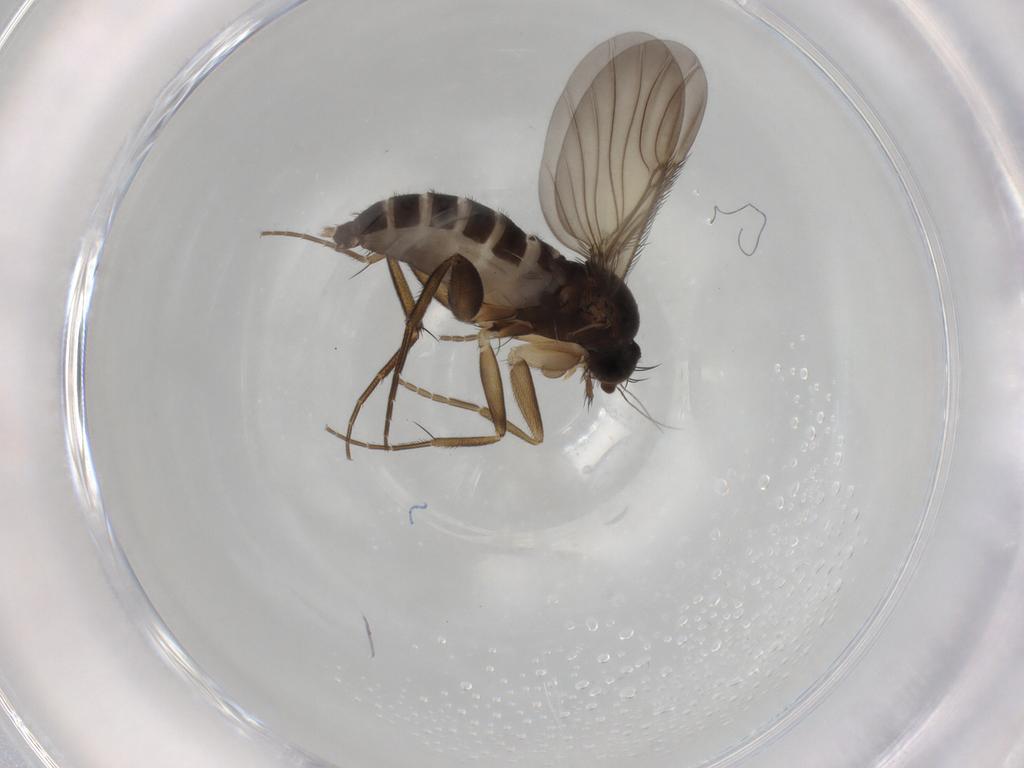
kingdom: Animalia
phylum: Arthropoda
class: Insecta
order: Diptera
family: Phoridae
